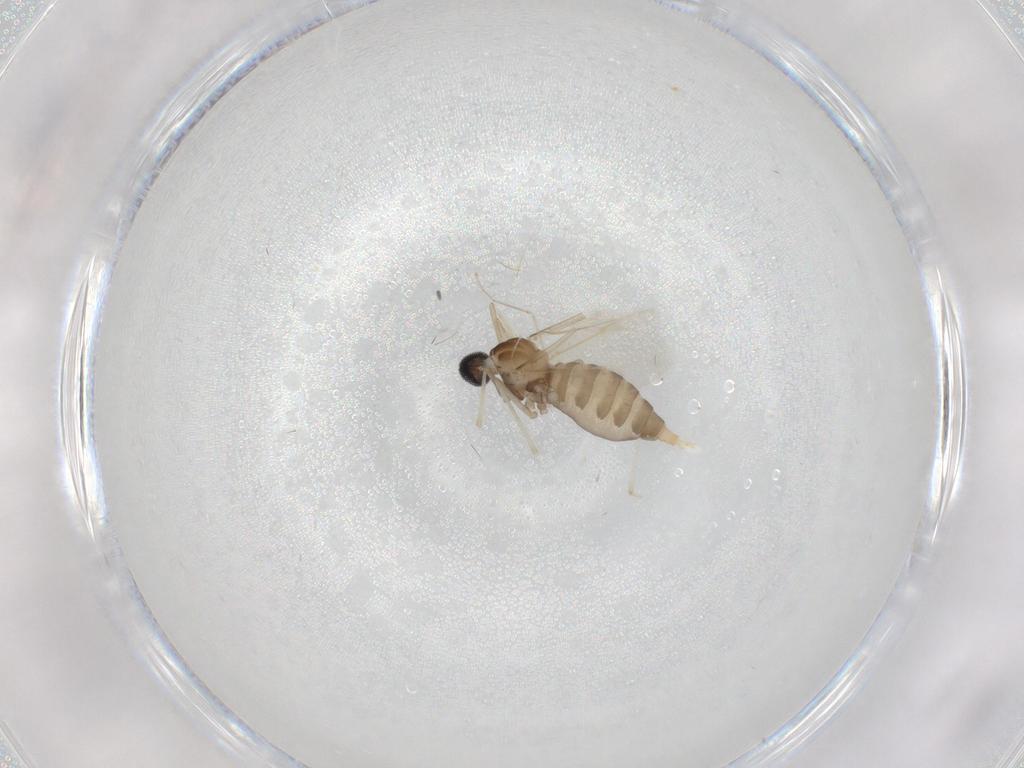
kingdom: Animalia
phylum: Arthropoda
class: Insecta
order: Diptera
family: Cecidomyiidae
